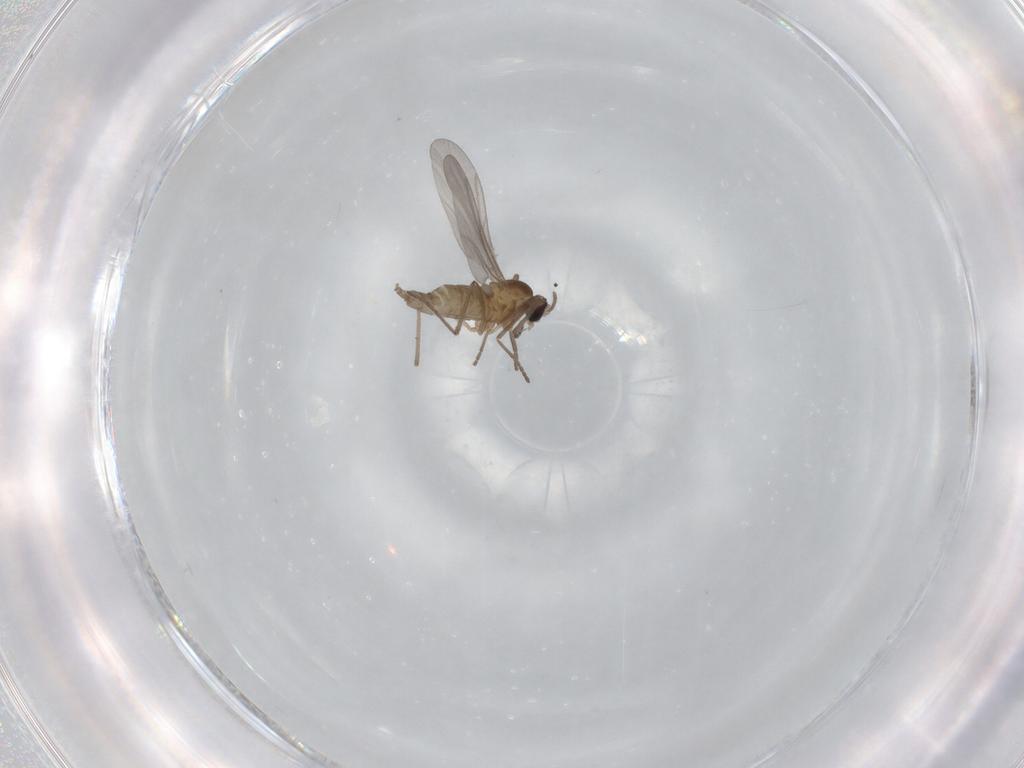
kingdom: Animalia
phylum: Arthropoda
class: Insecta
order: Diptera
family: Cecidomyiidae
